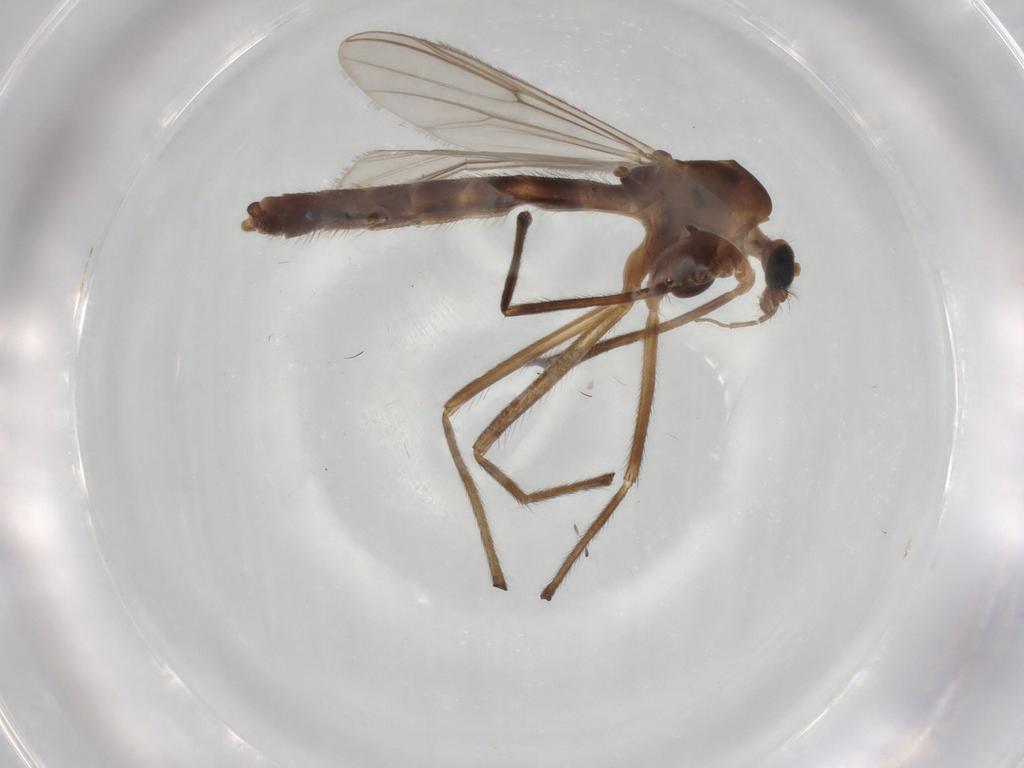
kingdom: Animalia
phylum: Arthropoda
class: Insecta
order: Diptera
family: Chironomidae
